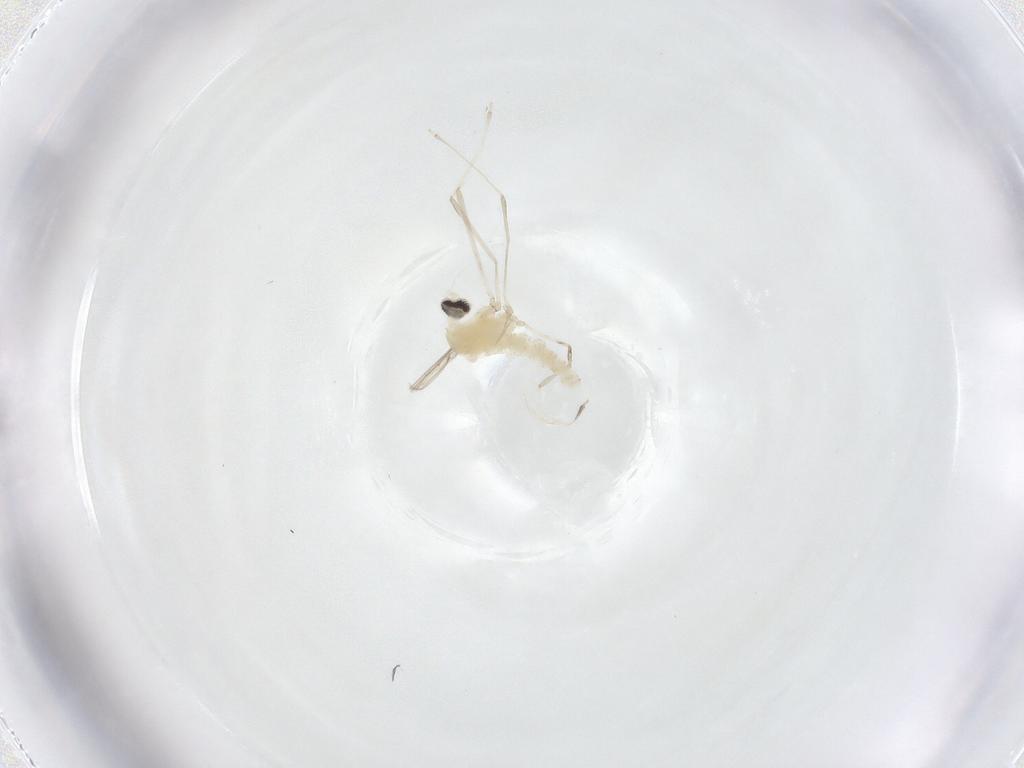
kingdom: Animalia
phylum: Arthropoda
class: Insecta
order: Diptera
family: Cecidomyiidae
